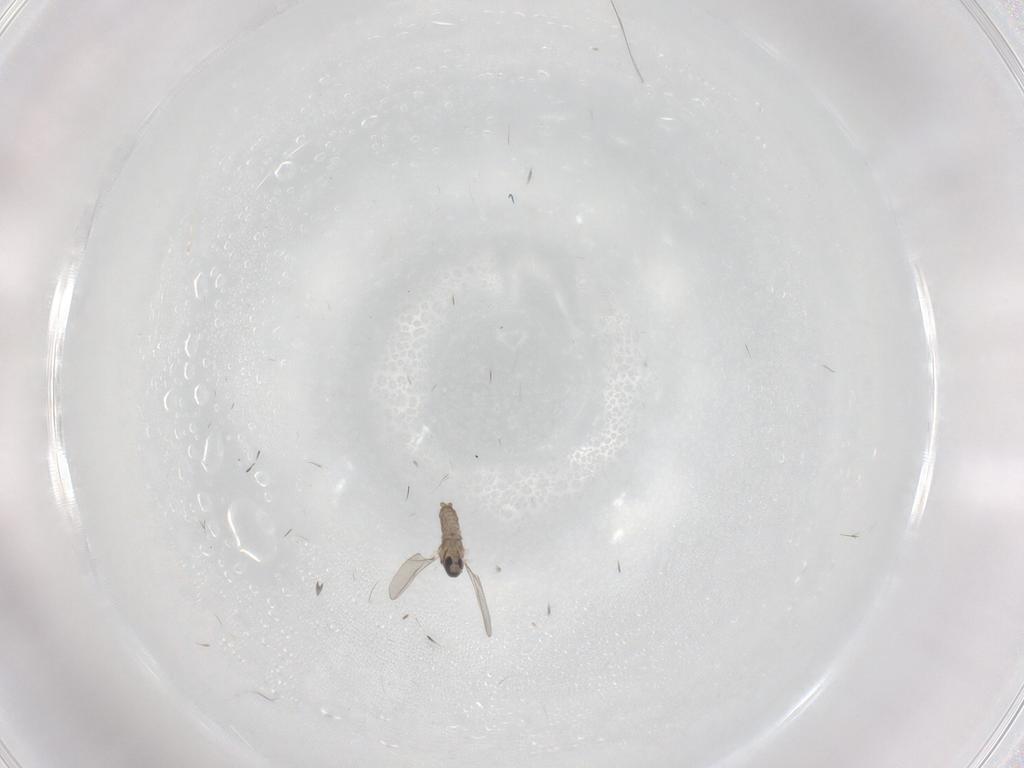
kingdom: Animalia
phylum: Arthropoda
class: Insecta
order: Diptera
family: Cecidomyiidae
